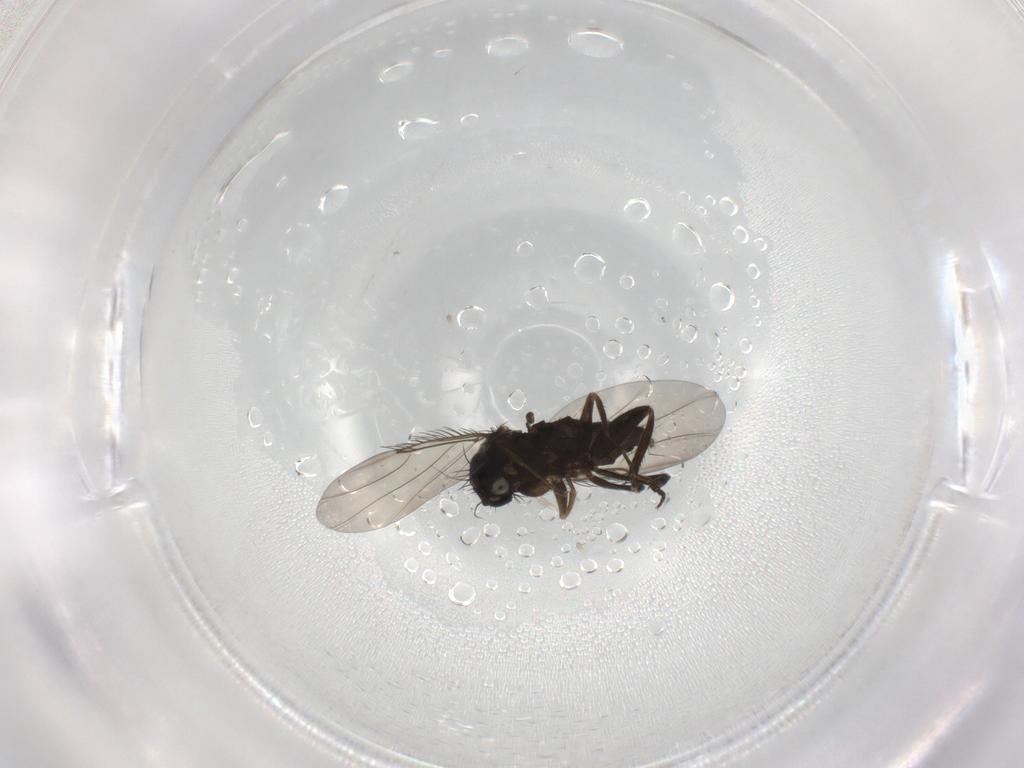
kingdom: Animalia
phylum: Arthropoda
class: Insecta
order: Diptera
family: Phoridae
